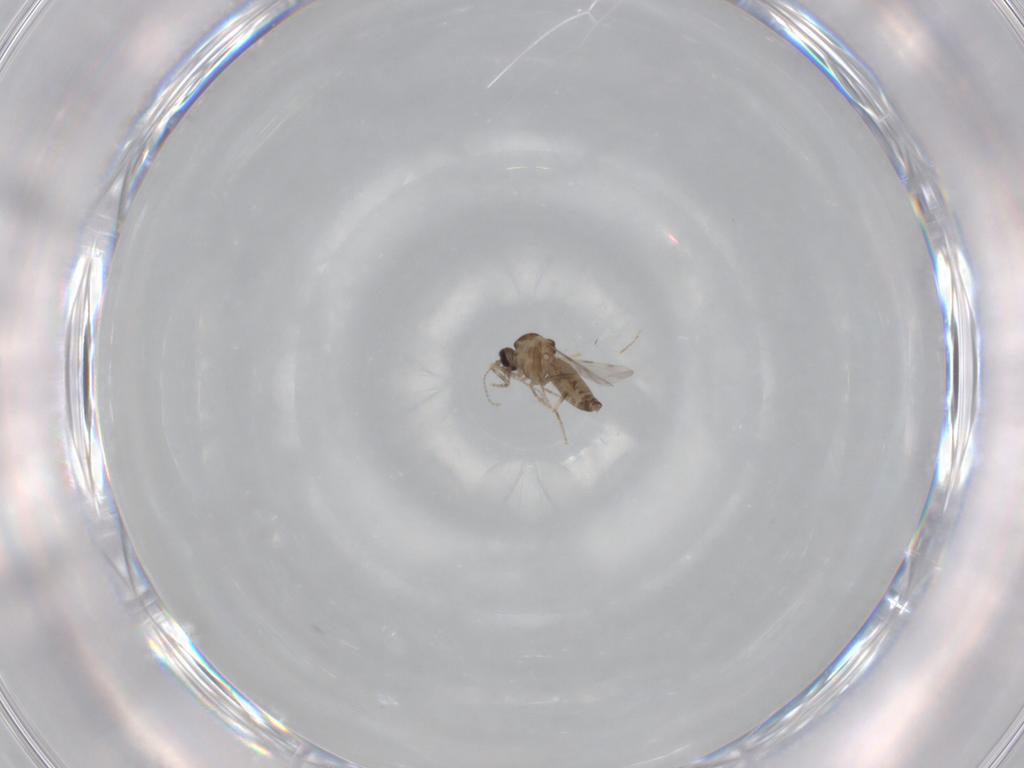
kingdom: Animalia
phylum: Arthropoda
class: Insecta
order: Diptera
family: Ceratopogonidae
